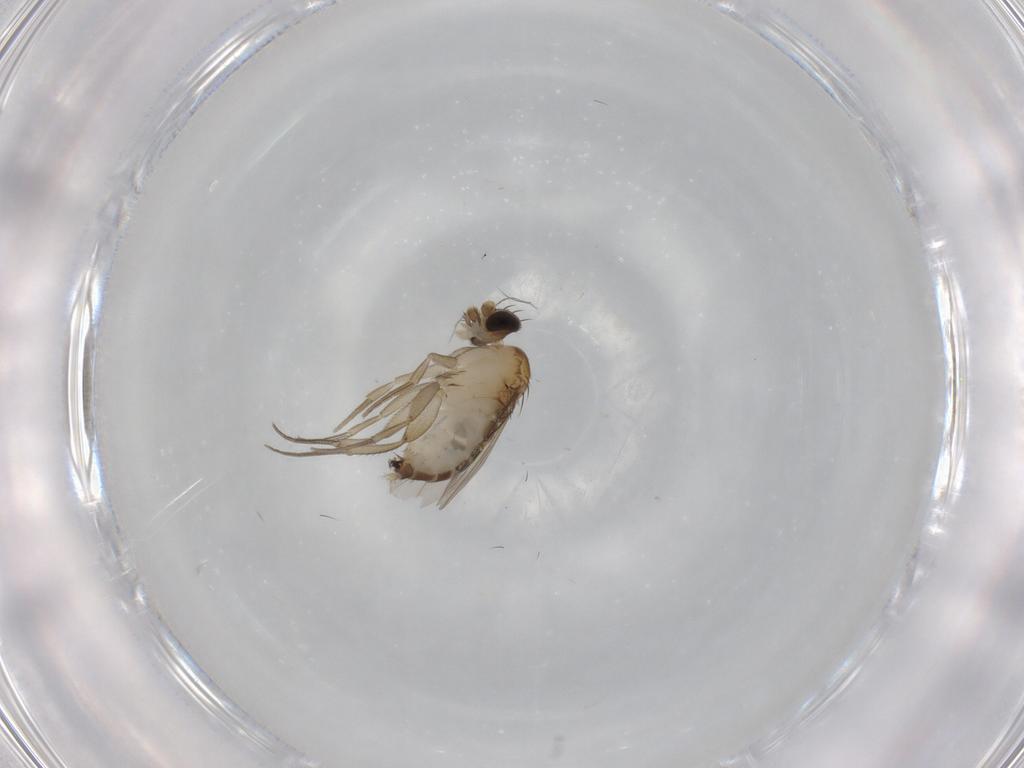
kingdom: Animalia
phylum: Arthropoda
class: Insecta
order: Diptera
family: Phoridae
